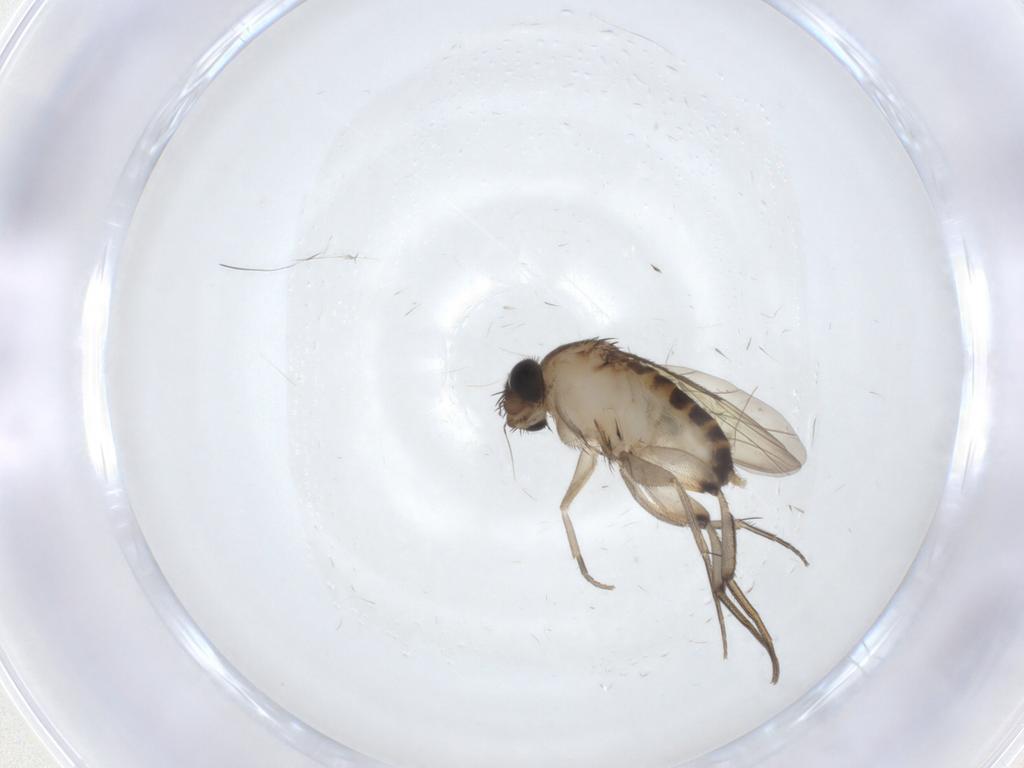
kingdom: Animalia
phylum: Arthropoda
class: Insecta
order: Diptera
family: Phoridae
